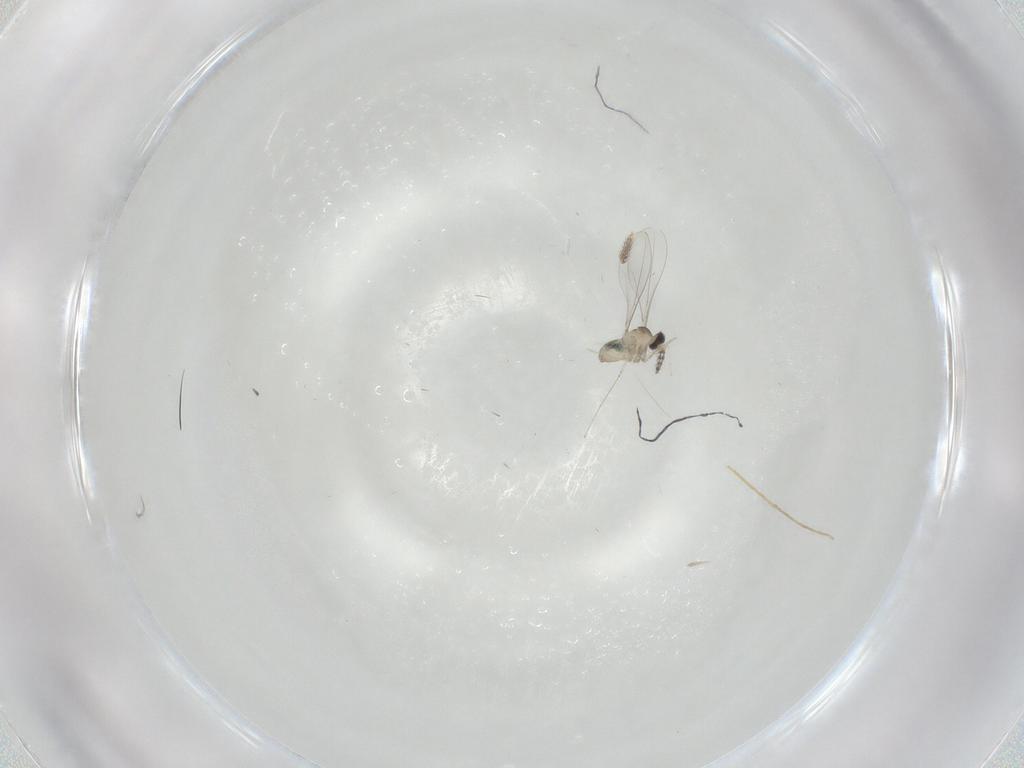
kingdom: Animalia
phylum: Arthropoda
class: Insecta
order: Diptera
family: Cecidomyiidae
